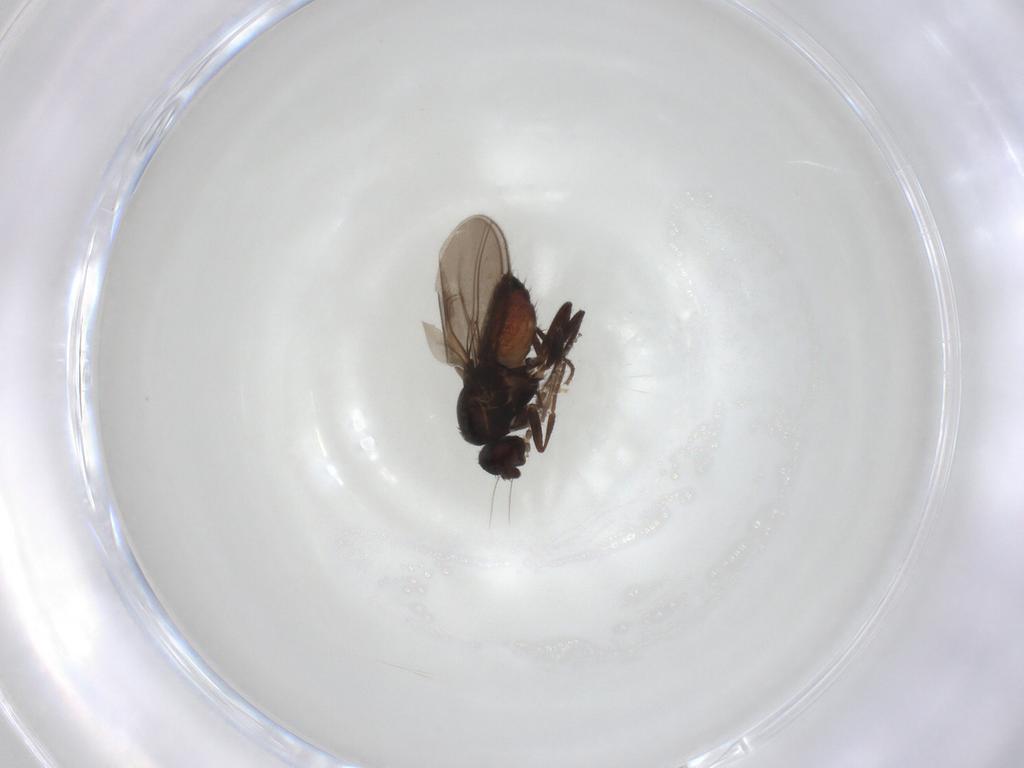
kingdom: Animalia
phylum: Arthropoda
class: Insecta
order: Diptera
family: Sphaeroceridae
